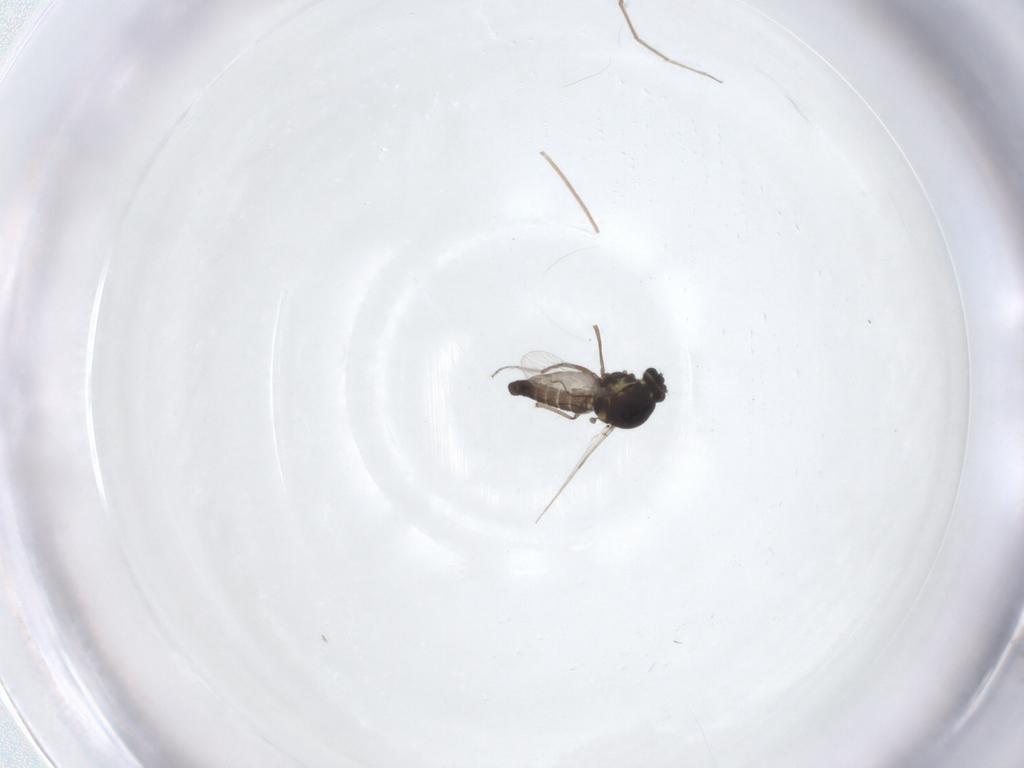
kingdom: Animalia
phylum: Arthropoda
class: Insecta
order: Diptera
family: Ceratopogonidae
